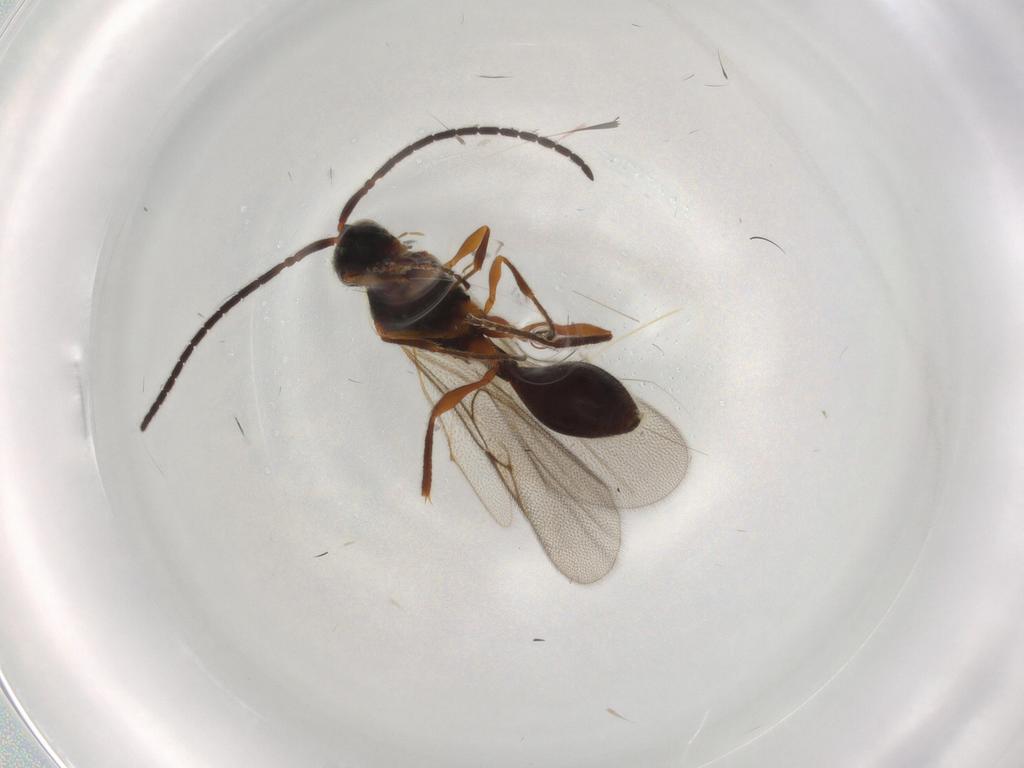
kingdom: Animalia
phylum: Arthropoda
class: Insecta
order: Hymenoptera
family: Diapriidae
